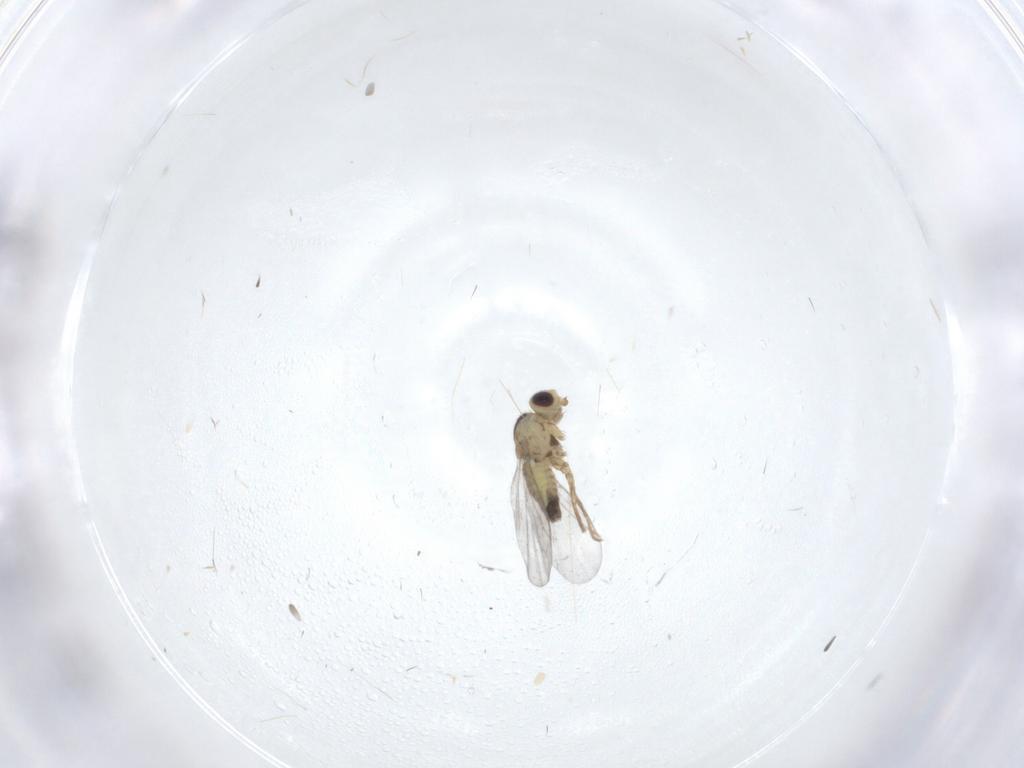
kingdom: Animalia
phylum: Arthropoda
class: Insecta
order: Diptera
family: Agromyzidae
